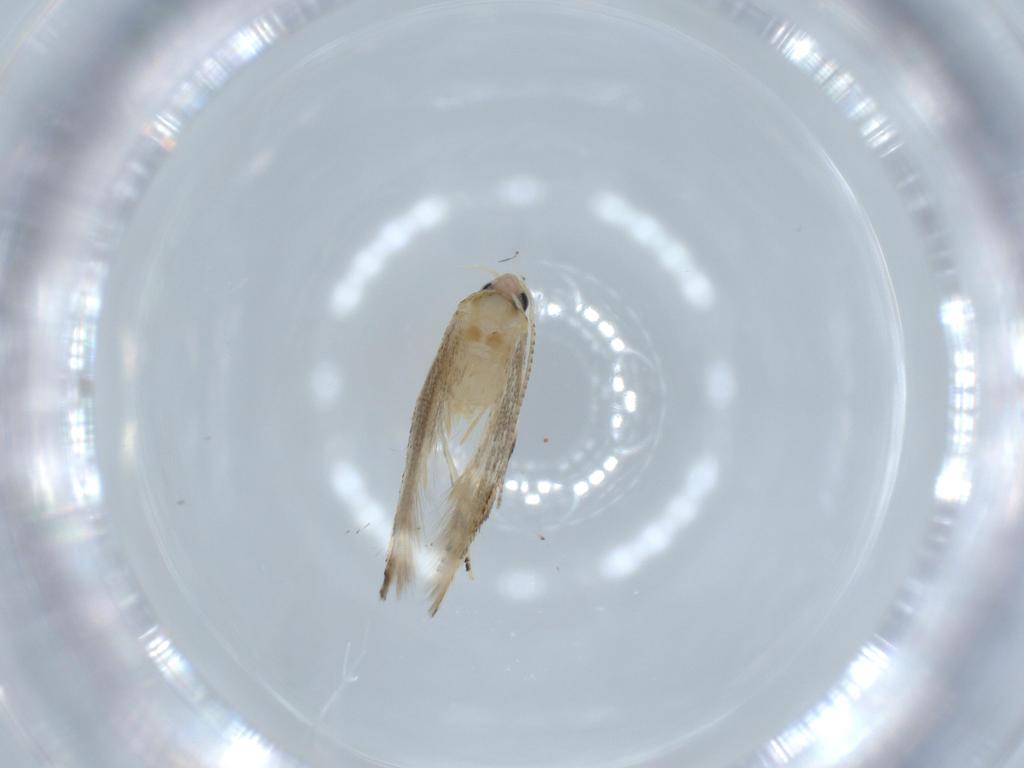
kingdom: Animalia
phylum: Arthropoda
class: Insecta
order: Lepidoptera
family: Bucculatricidae
